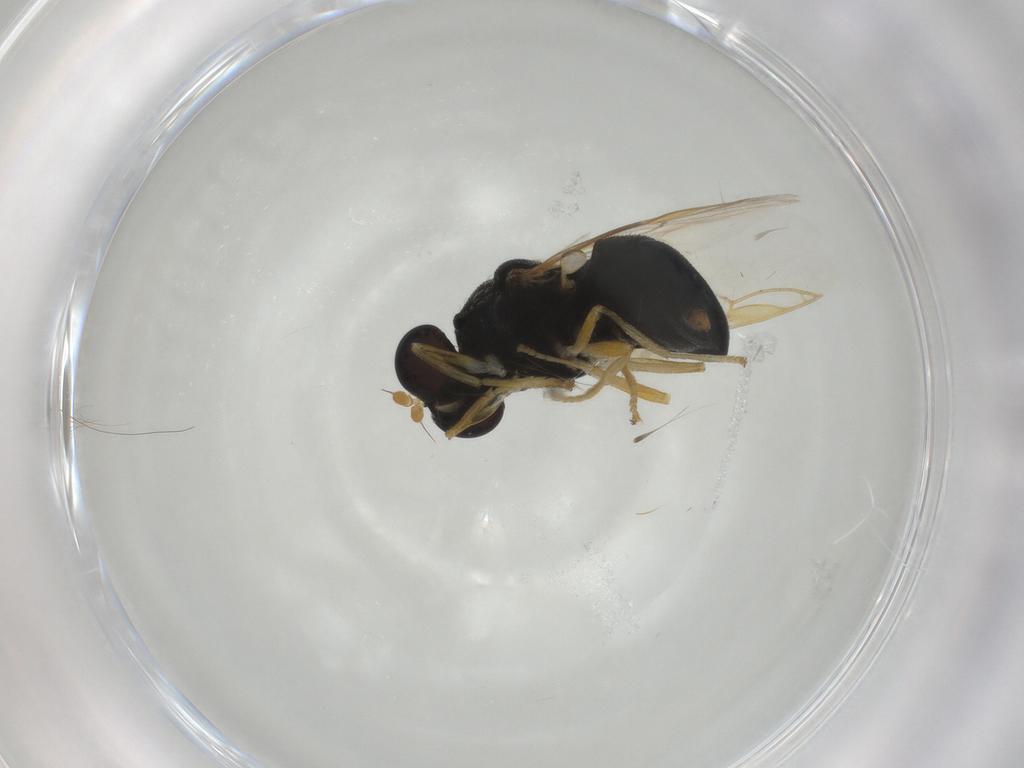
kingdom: Animalia
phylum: Arthropoda
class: Insecta
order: Diptera
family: Stratiomyidae
